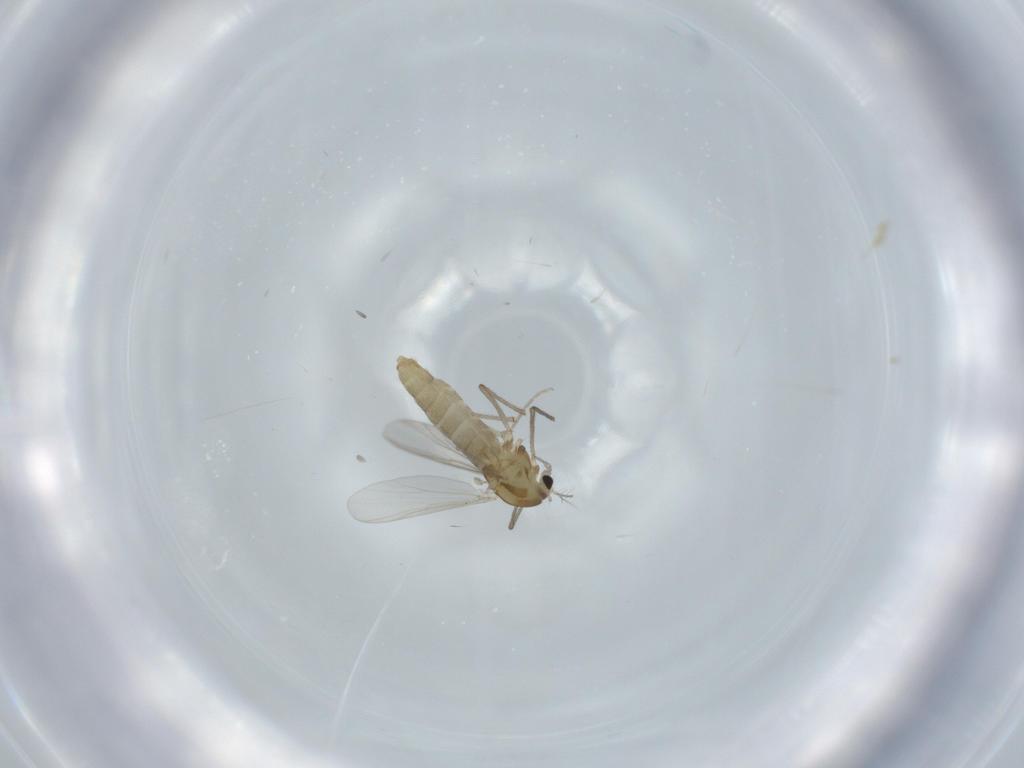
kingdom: Animalia
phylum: Arthropoda
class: Insecta
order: Diptera
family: Chironomidae
